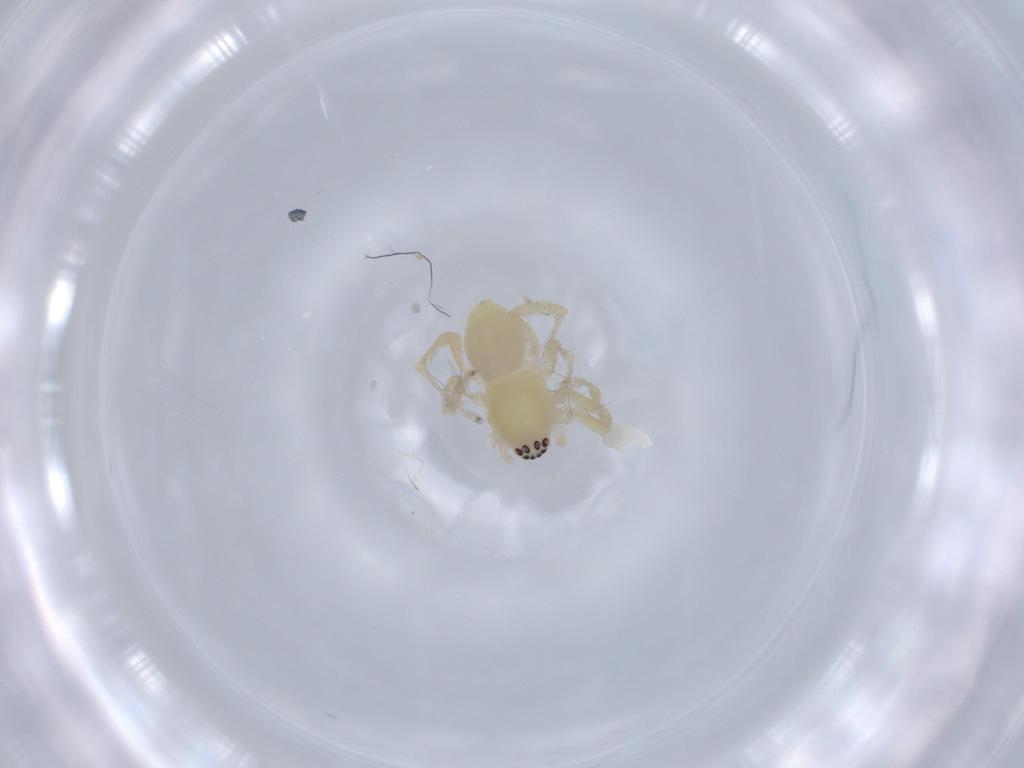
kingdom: Animalia
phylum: Arthropoda
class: Arachnida
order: Araneae
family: Anyphaenidae
